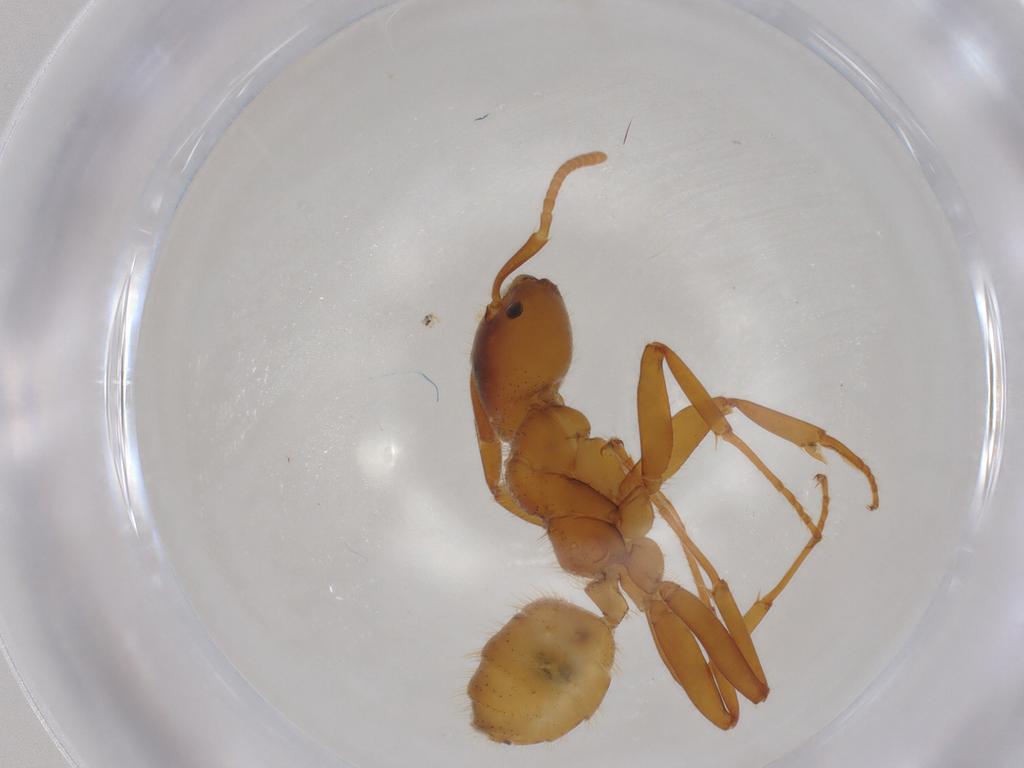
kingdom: Animalia
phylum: Arthropoda
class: Insecta
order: Hymenoptera
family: Formicidae
